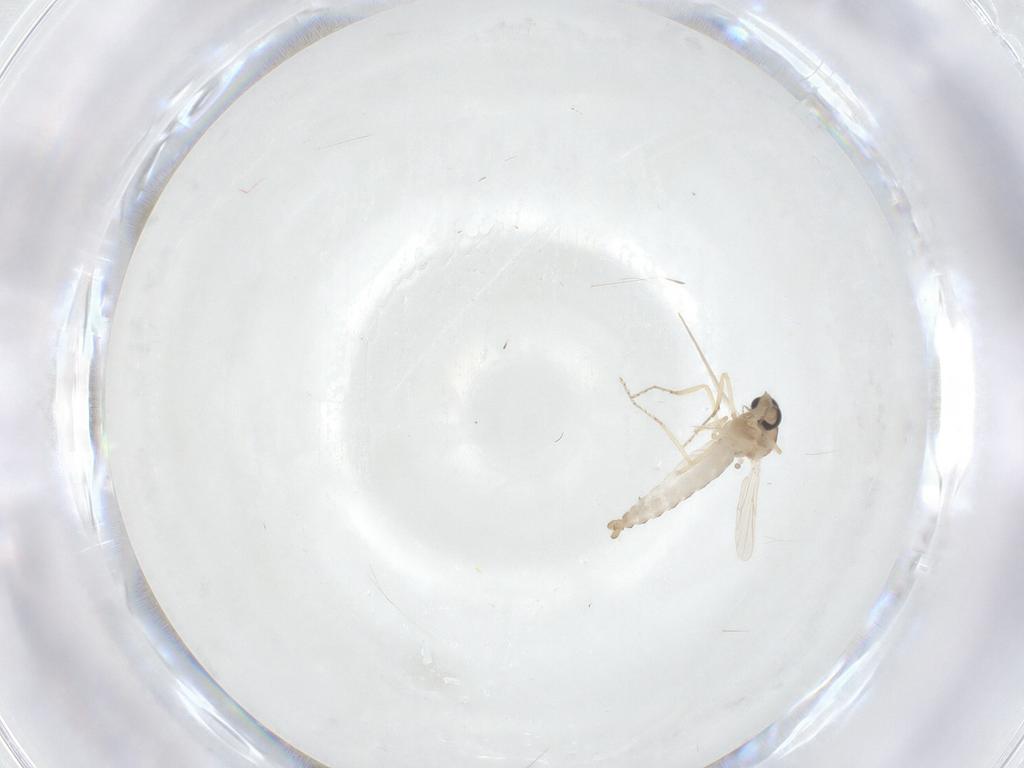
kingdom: Animalia
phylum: Arthropoda
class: Insecta
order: Diptera
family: Ceratopogonidae
